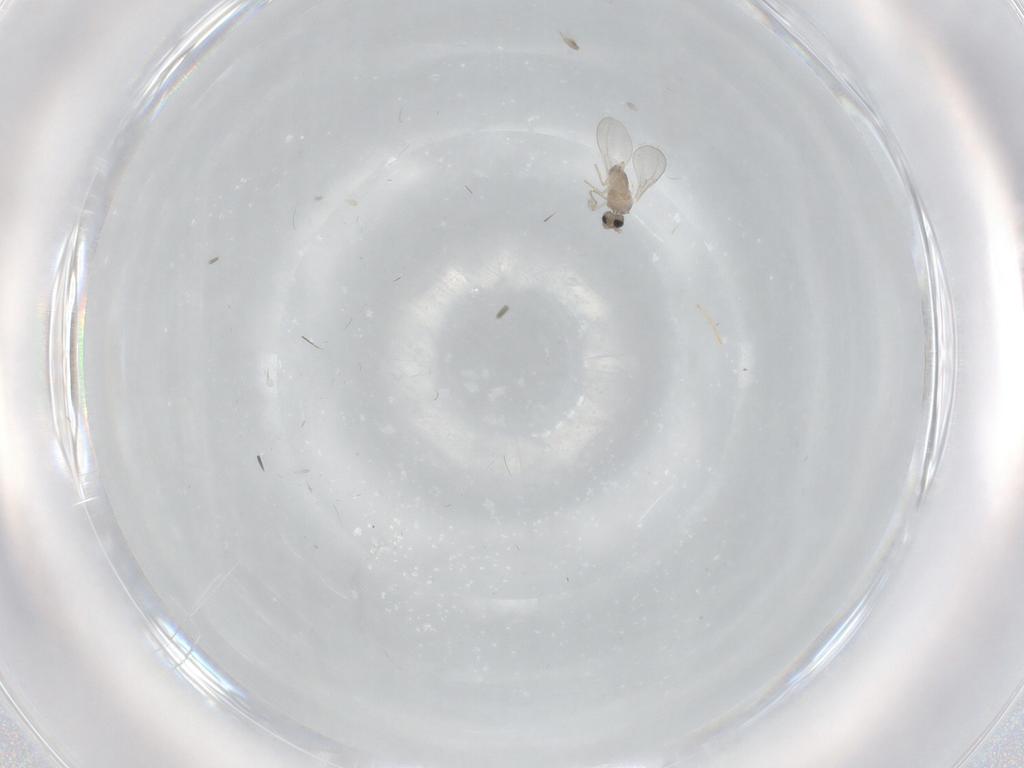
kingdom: Animalia
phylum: Arthropoda
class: Insecta
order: Diptera
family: Cecidomyiidae
